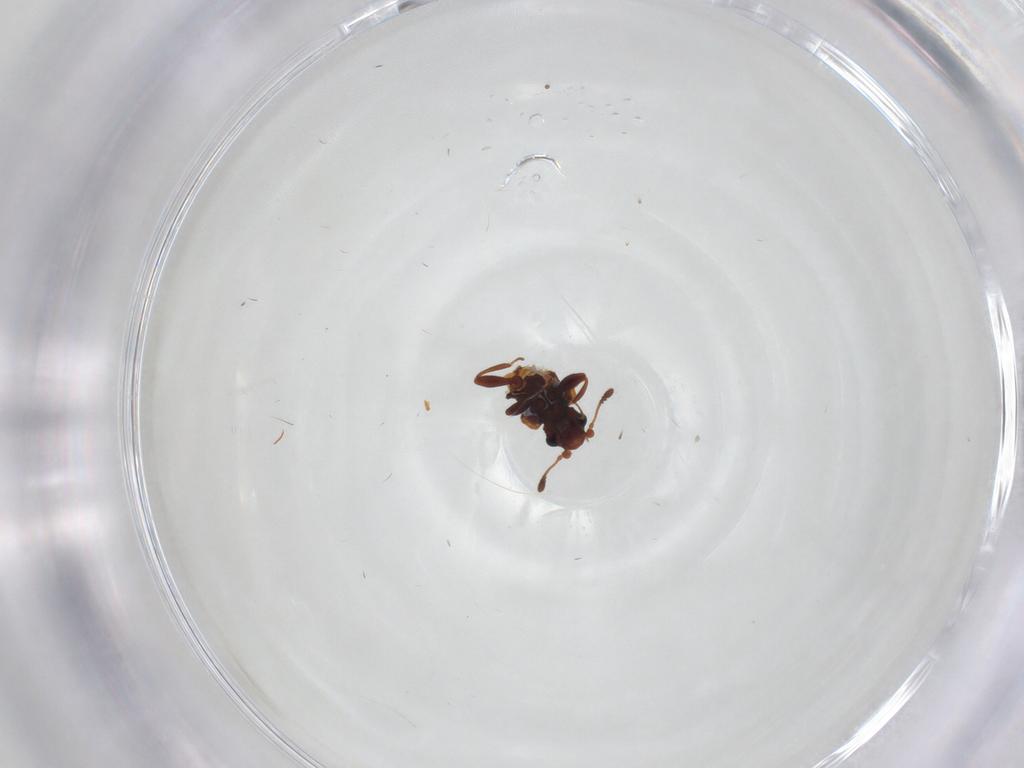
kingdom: Animalia
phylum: Arthropoda
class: Insecta
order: Coleoptera
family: Latridiidae
